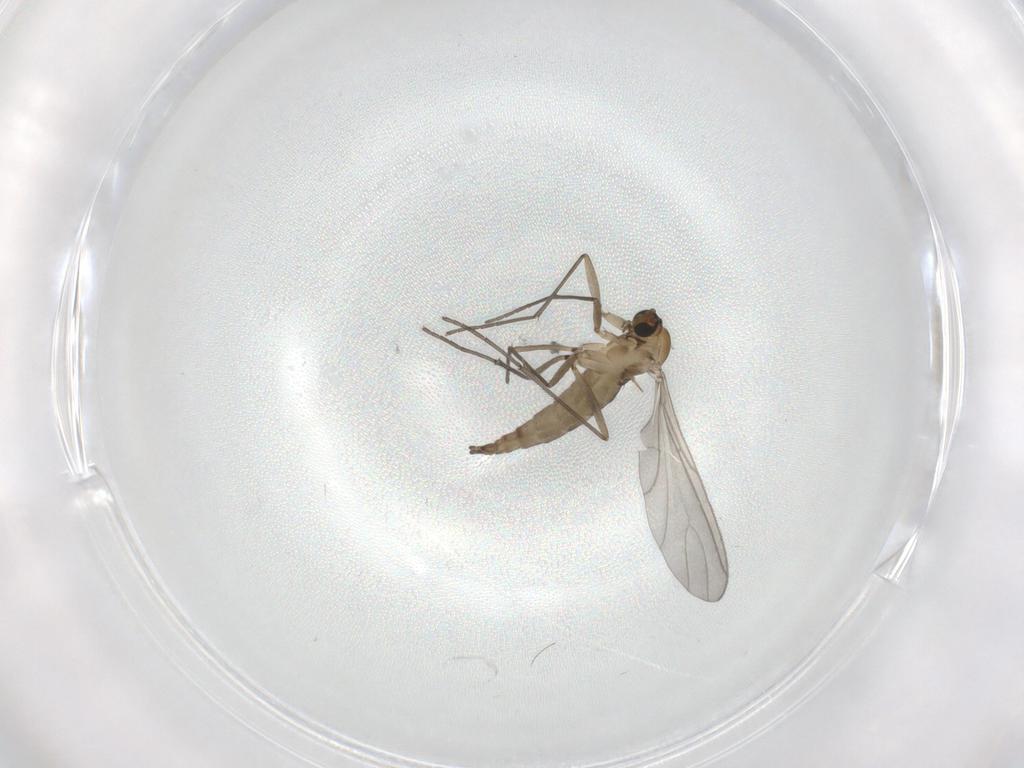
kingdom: Animalia
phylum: Arthropoda
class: Insecta
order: Diptera
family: Sciaridae
